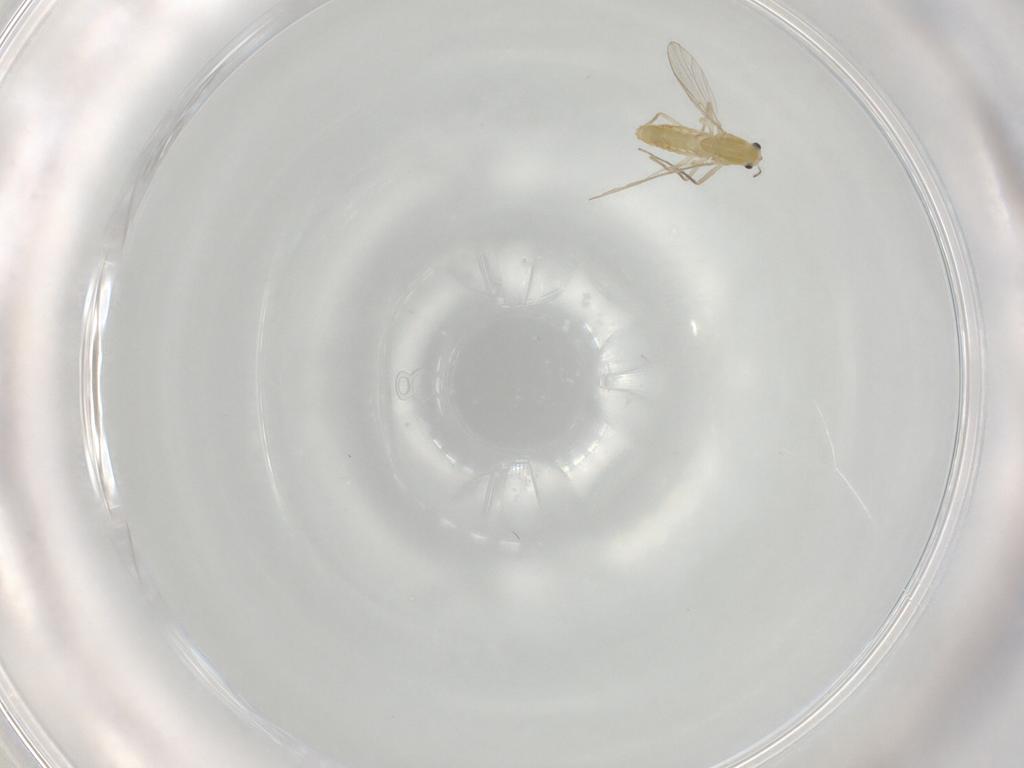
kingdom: Animalia
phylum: Arthropoda
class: Insecta
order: Diptera
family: Chironomidae
